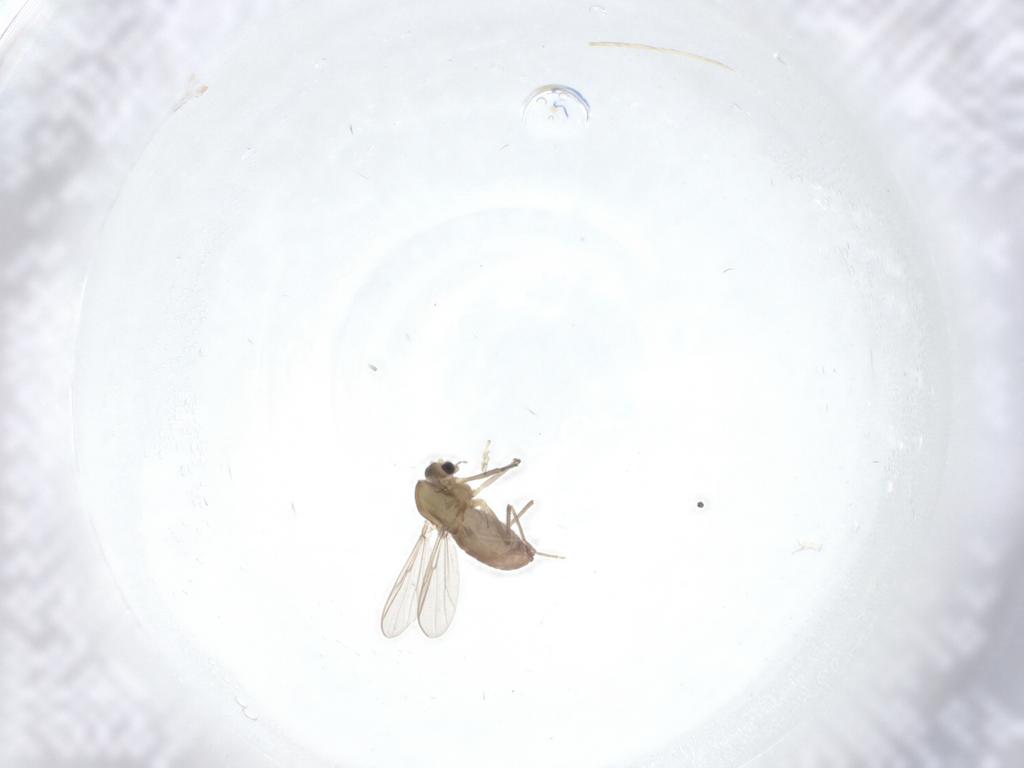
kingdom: Animalia
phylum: Arthropoda
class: Insecta
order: Diptera
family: Chironomidae
